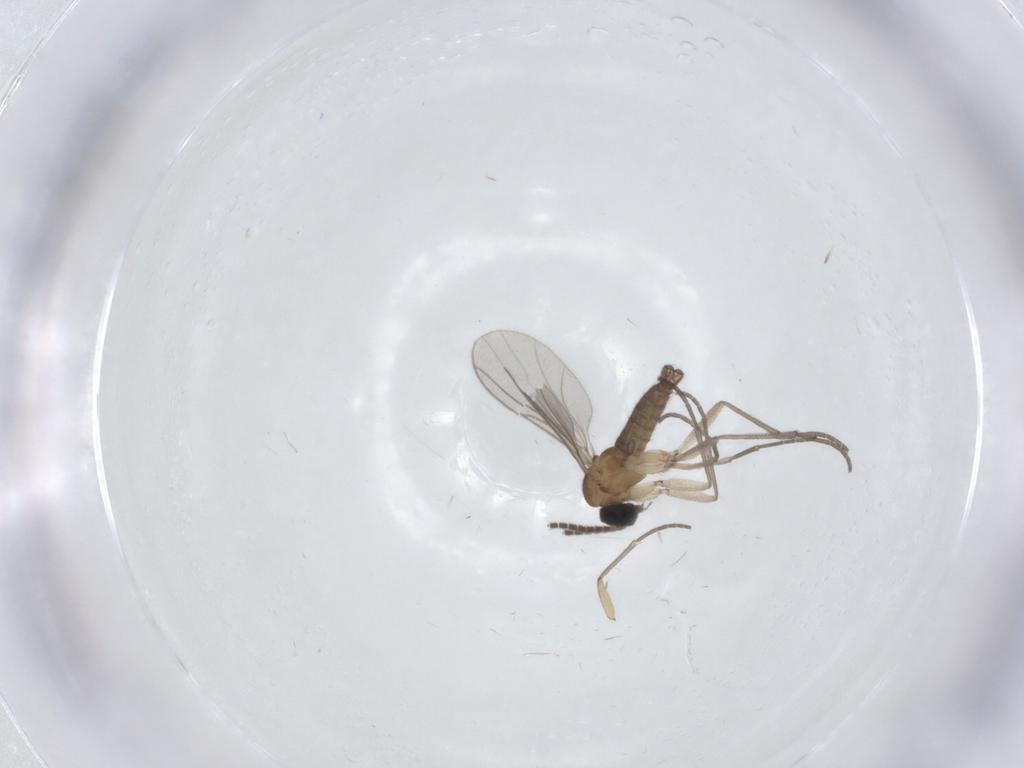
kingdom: Animalia
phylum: Arthropoda
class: Insecta
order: Diptera
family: Sciaridae
